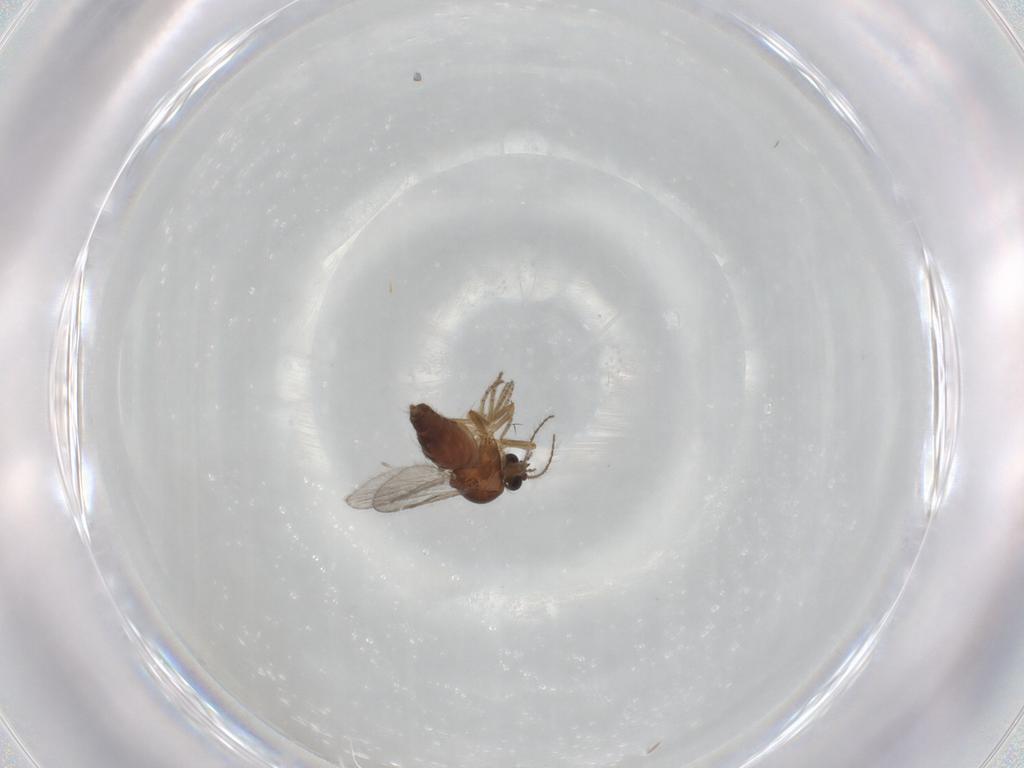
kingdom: Animalia
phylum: Arthropoda
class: Insecta
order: Diptera
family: Ceratopogonidae
